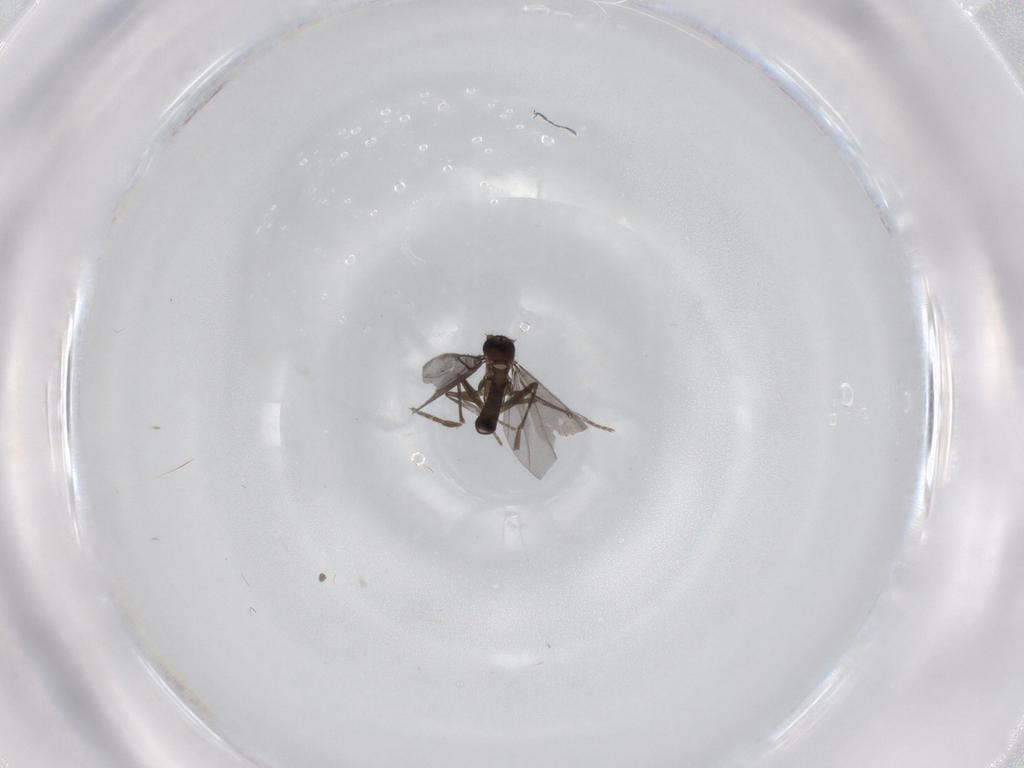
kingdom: Animalia
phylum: Arthropoda
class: Insecta
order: Diptera
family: Phoridae
